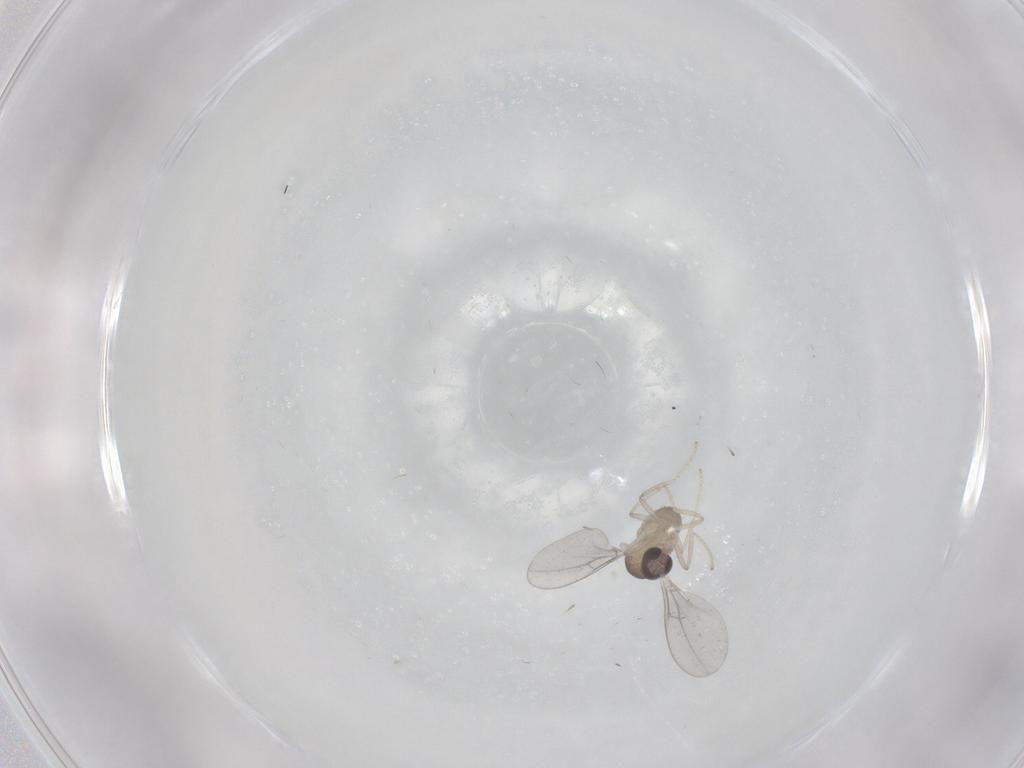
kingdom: Animalia
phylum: Arthropoda
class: Insecta
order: Diptera
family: Cecidomyiidae
